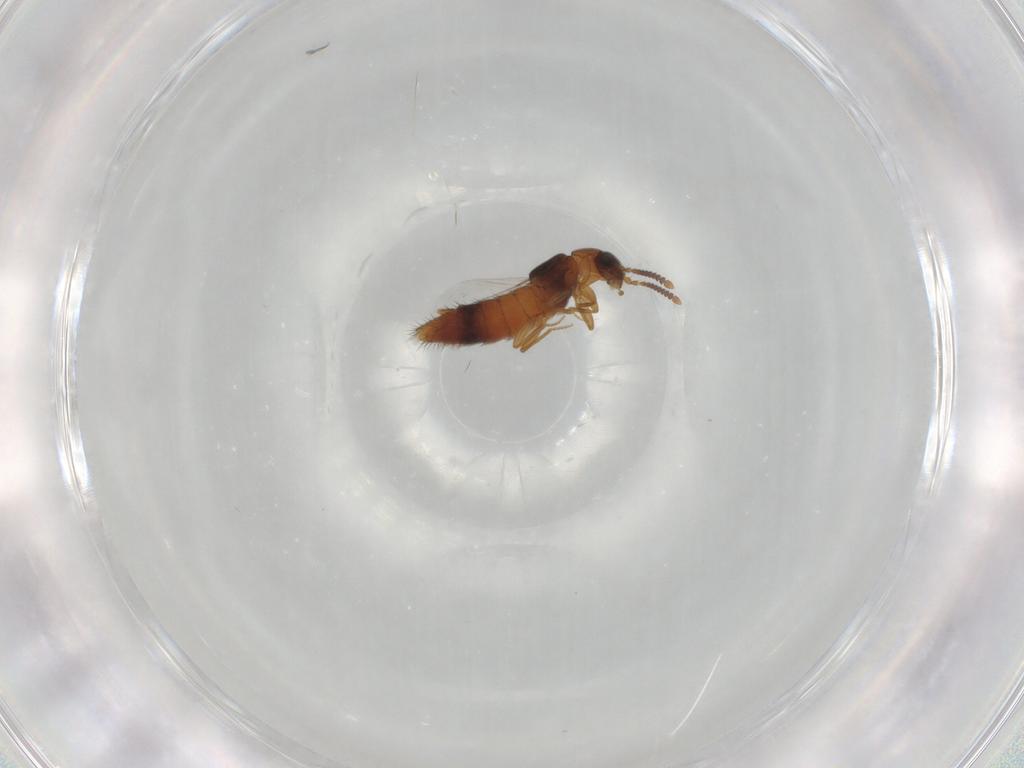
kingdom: Animalia
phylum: Arthropoda
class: Insecta
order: Coleoptera
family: Staphylinidae
